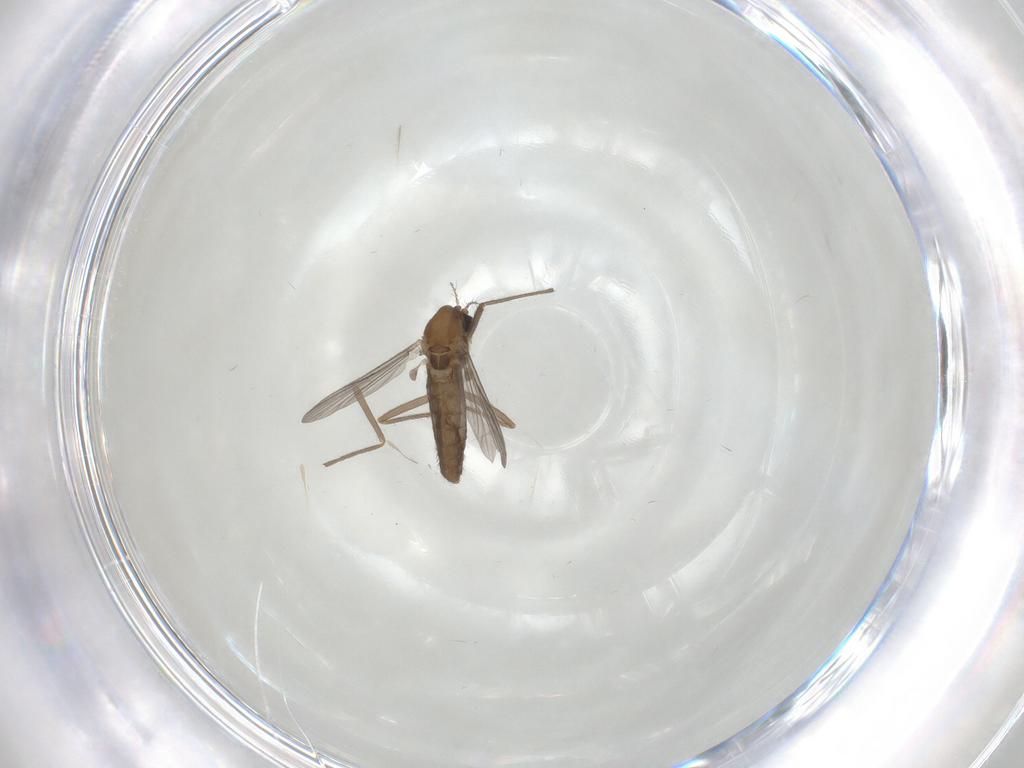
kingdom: Animalia
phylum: Arthropoda
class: Insecta
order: Diptera
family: Chironomidae
